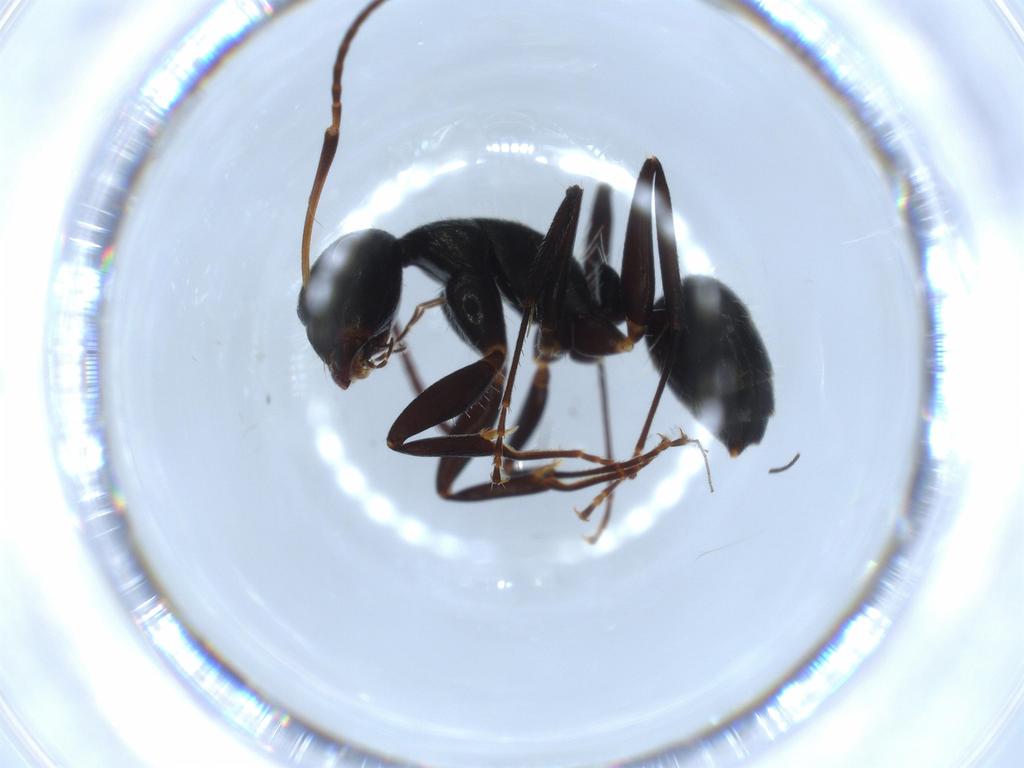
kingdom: Animalia
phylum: Arthropoda
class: Insecta
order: Hymenoptera
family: Formicidae
